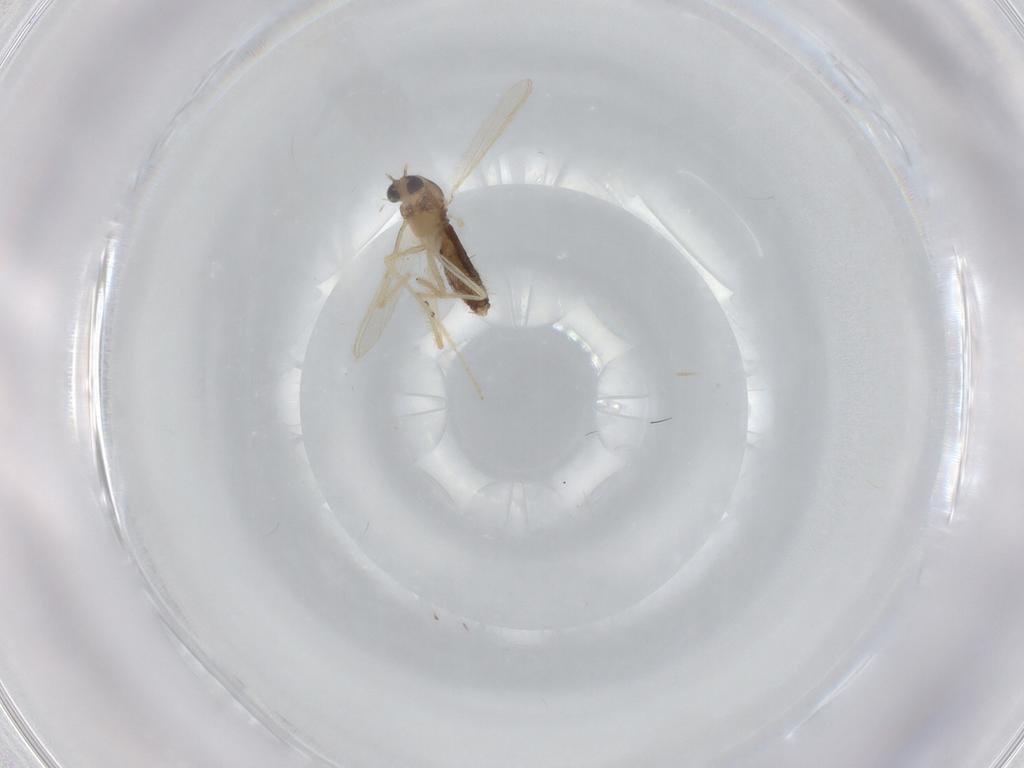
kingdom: Animalia
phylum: Arthropoda
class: Insecta
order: Diptera
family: Chironomidae
